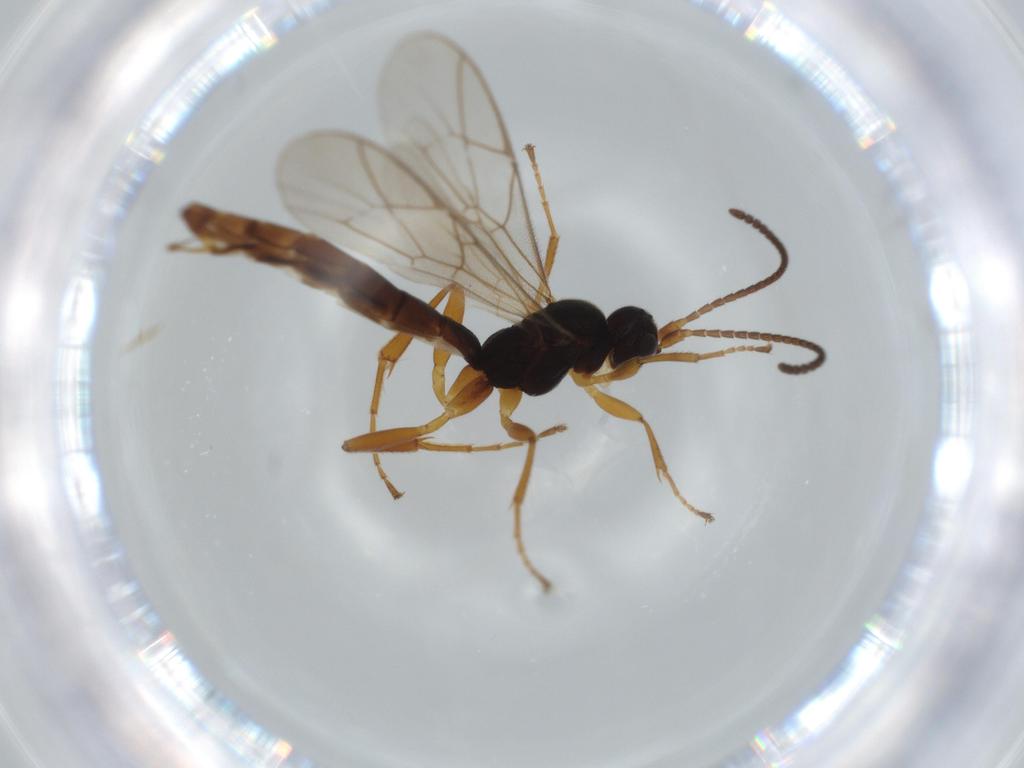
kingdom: Animalia
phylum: Arthropoda
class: Insecta
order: Hymenoptera
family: Ichneumonidae
